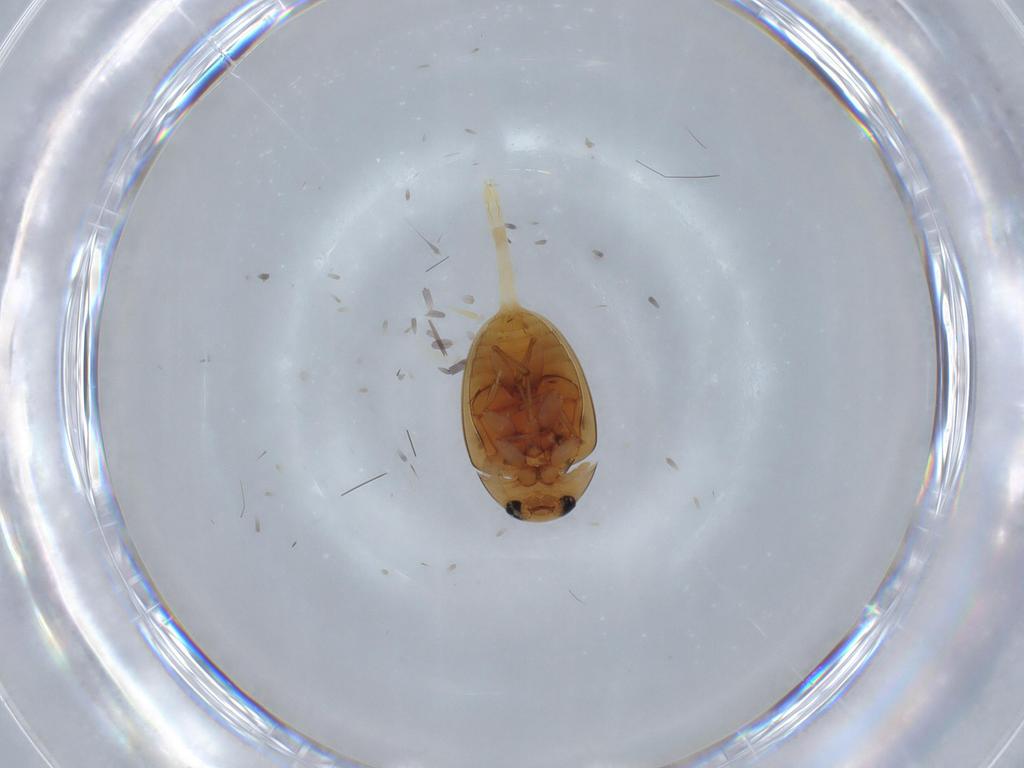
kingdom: Animalia
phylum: Arthropoda
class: Insecta
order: Coleoptera
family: Phalacridae
